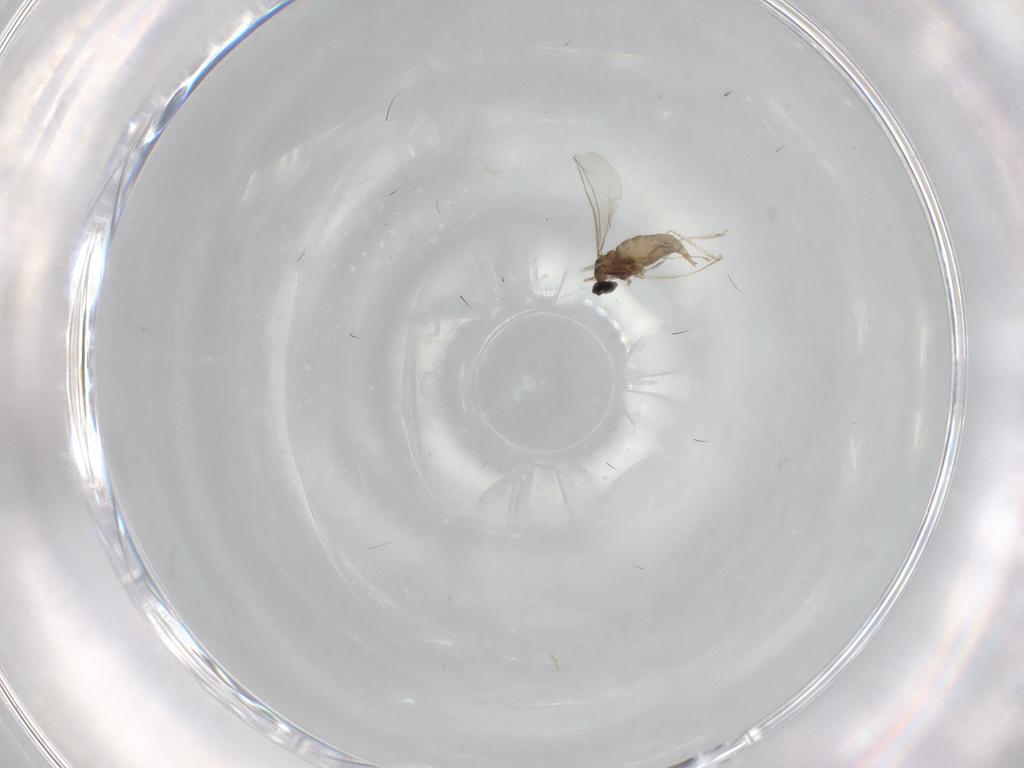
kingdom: Animalia
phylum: Arthropoda
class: Insecta
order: Diptera
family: Cecidomyiidae
